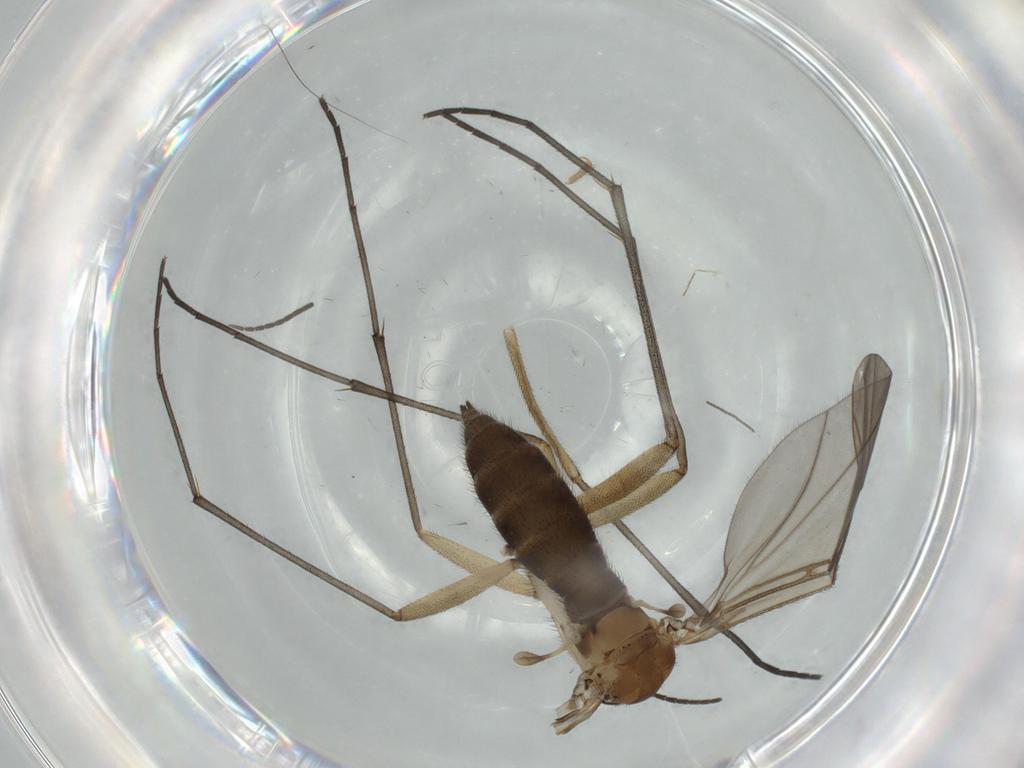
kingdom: Animalia
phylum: Arthropoda
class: Insecta
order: Diptera
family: Sciaridae
